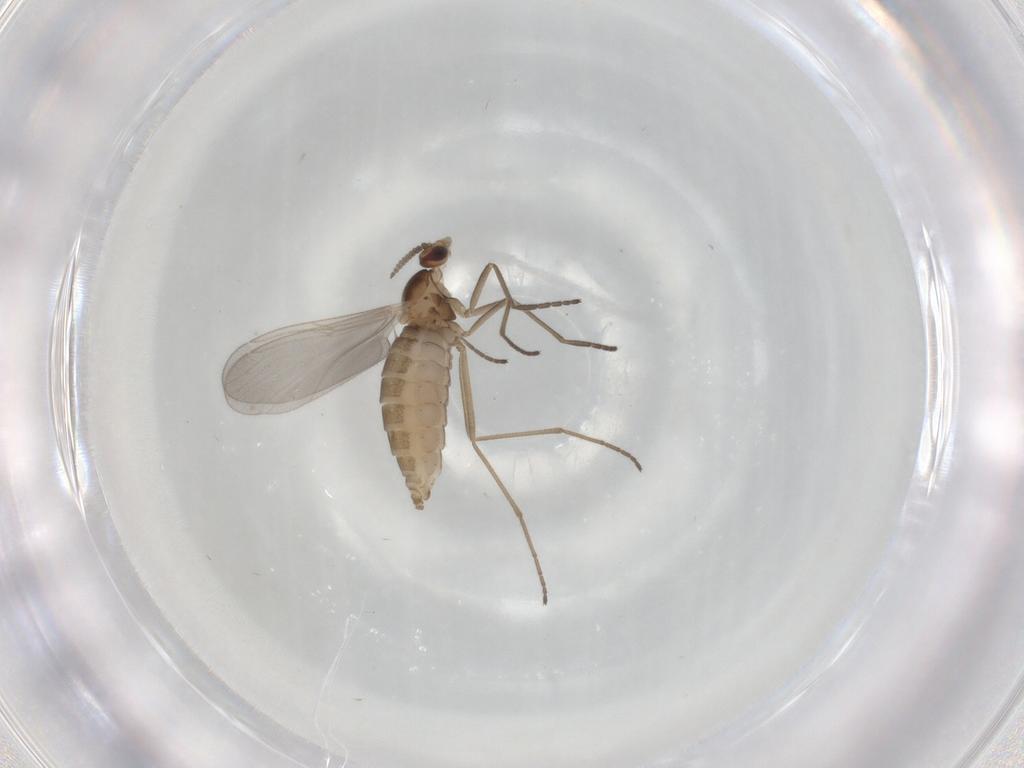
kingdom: Animalia
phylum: Arthropoda
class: Insecta
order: Diptera
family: Cecidomyiidae
